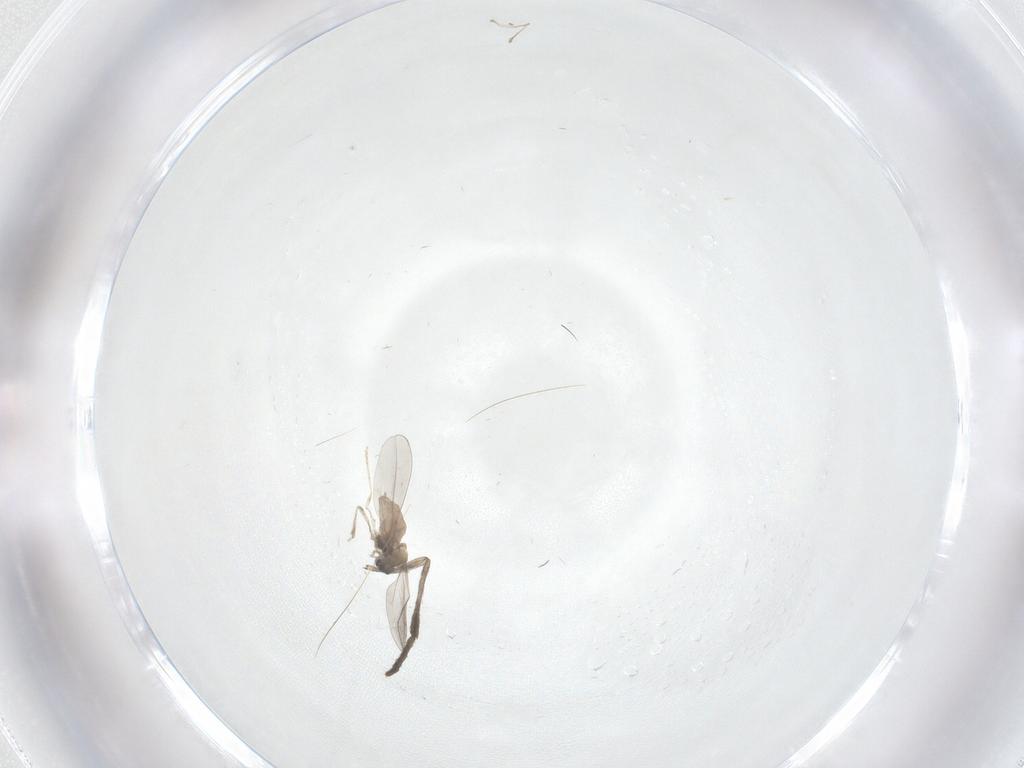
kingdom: Animalia
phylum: Arthropoda
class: Insecta
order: Diptera
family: Cecidomyiidae
